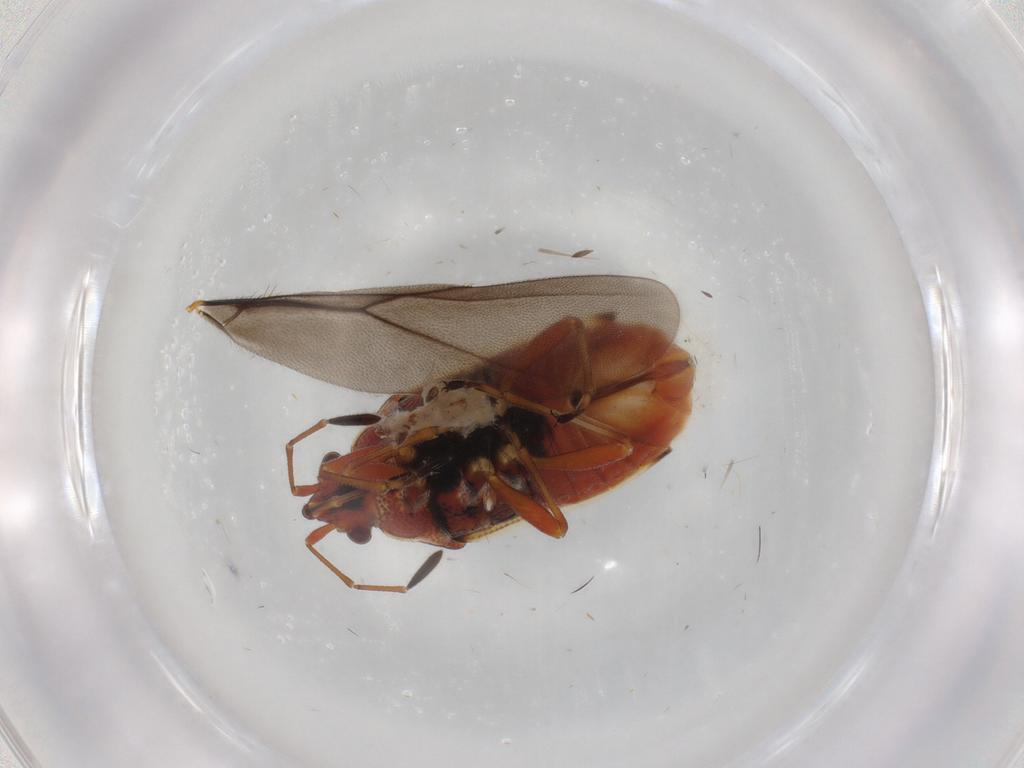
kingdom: Animalia
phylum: Arthropoda
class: Insecta
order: Hemiptera
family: Lygaeidae
